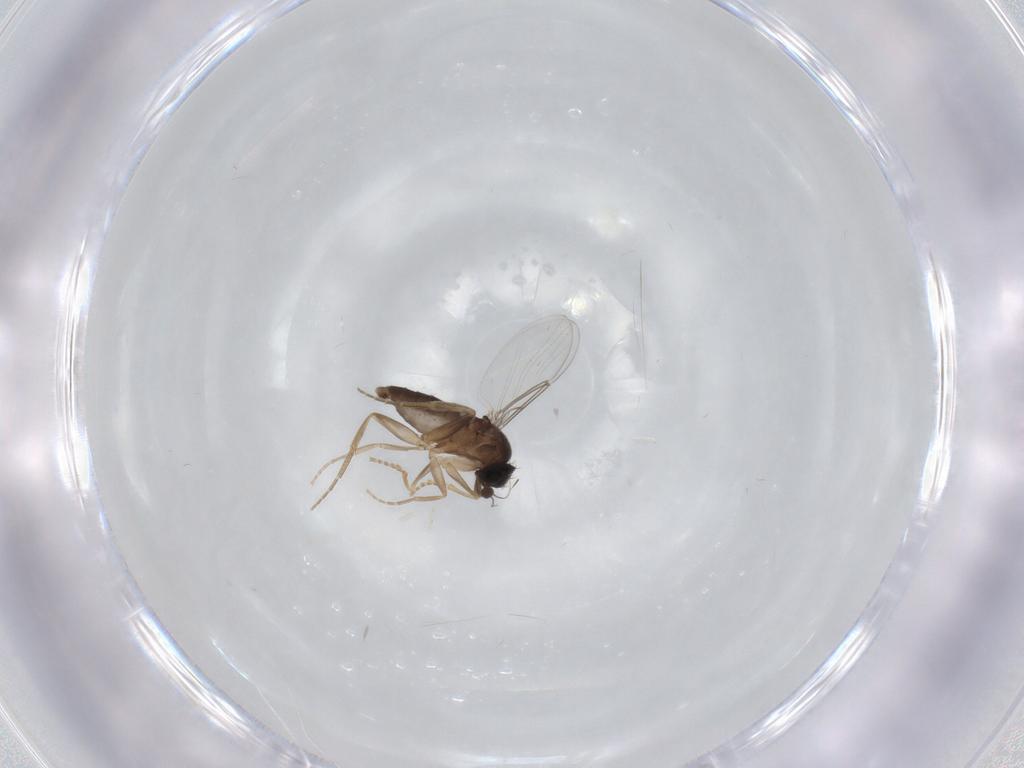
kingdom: Animalia
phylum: Arthropoda
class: Insecta
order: Diptera
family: Phoridae
